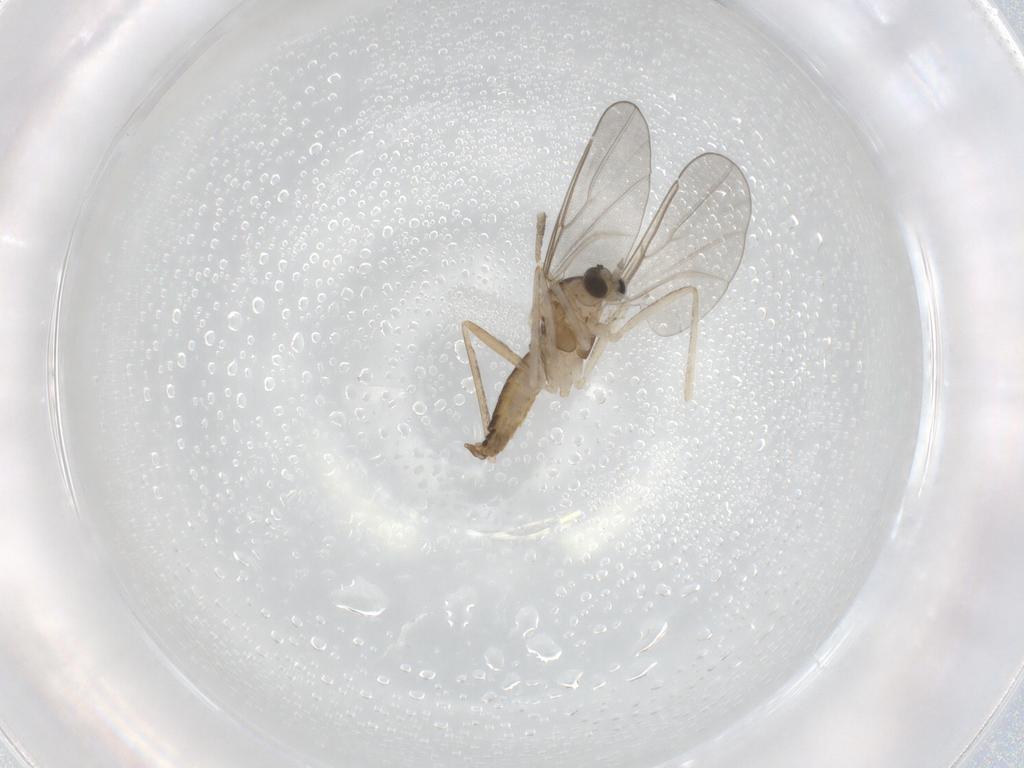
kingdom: Animalia
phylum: Arthropoda
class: Insecta
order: Diptera
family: Cecidomyiidae
